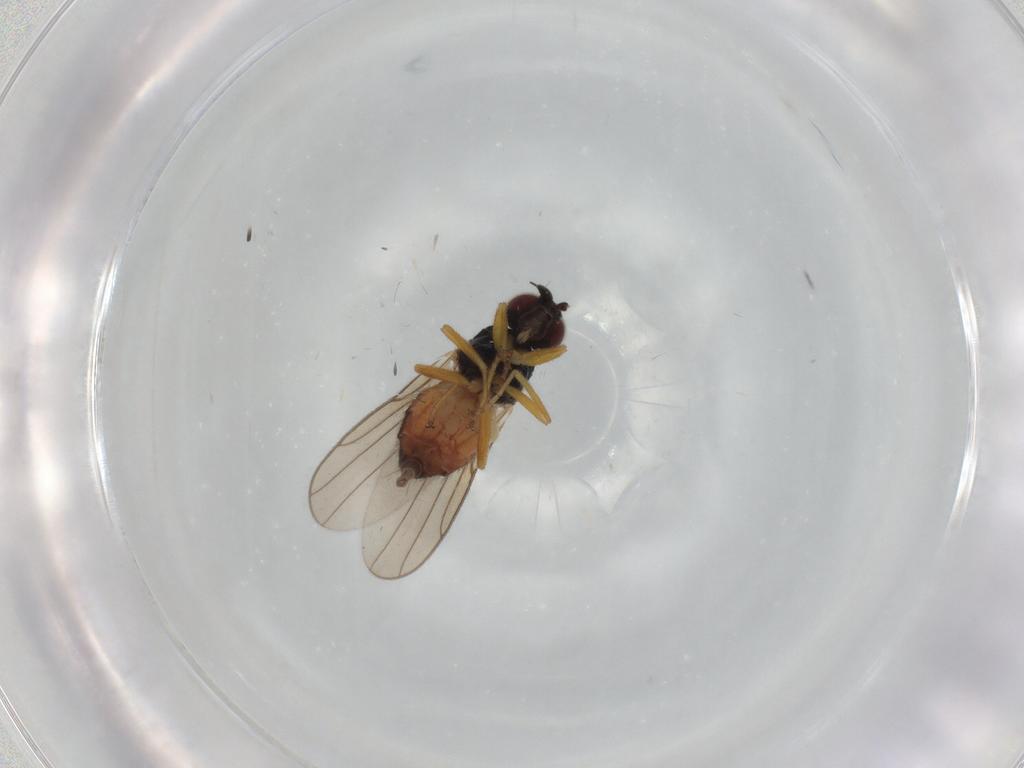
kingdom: Animalia
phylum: Arthropoda
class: Insecta
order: Diptera
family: Chloropidae
